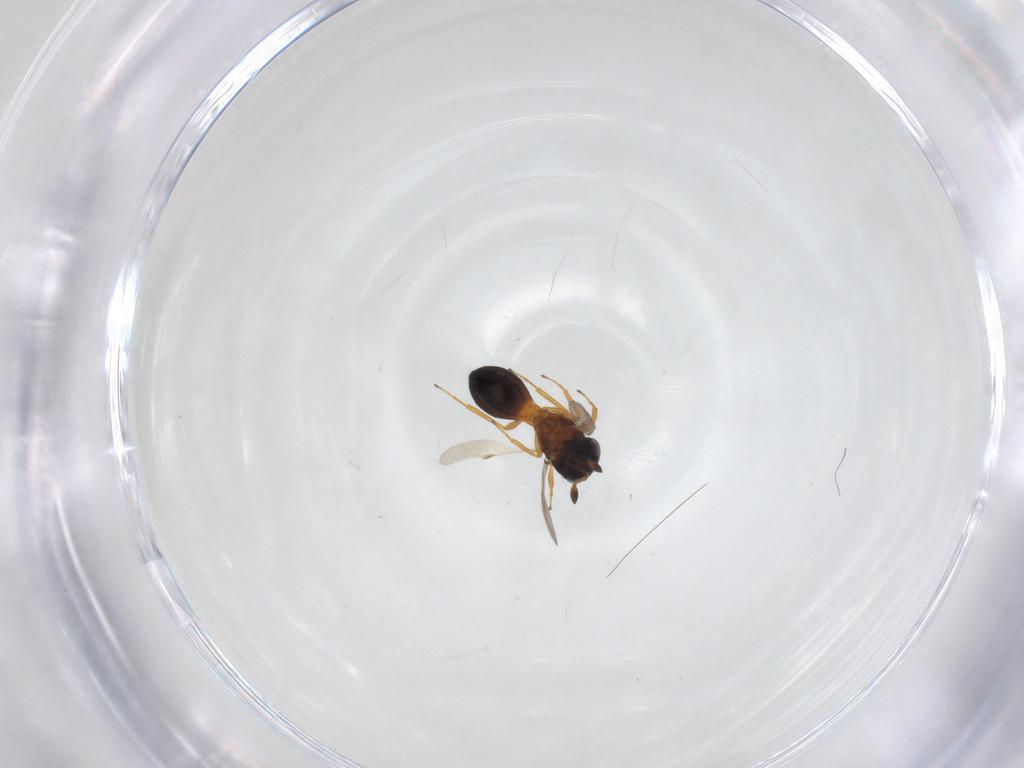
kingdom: Animalia
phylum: Arthropoda
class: Insecta
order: Hymenoptera
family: Scelionidae
